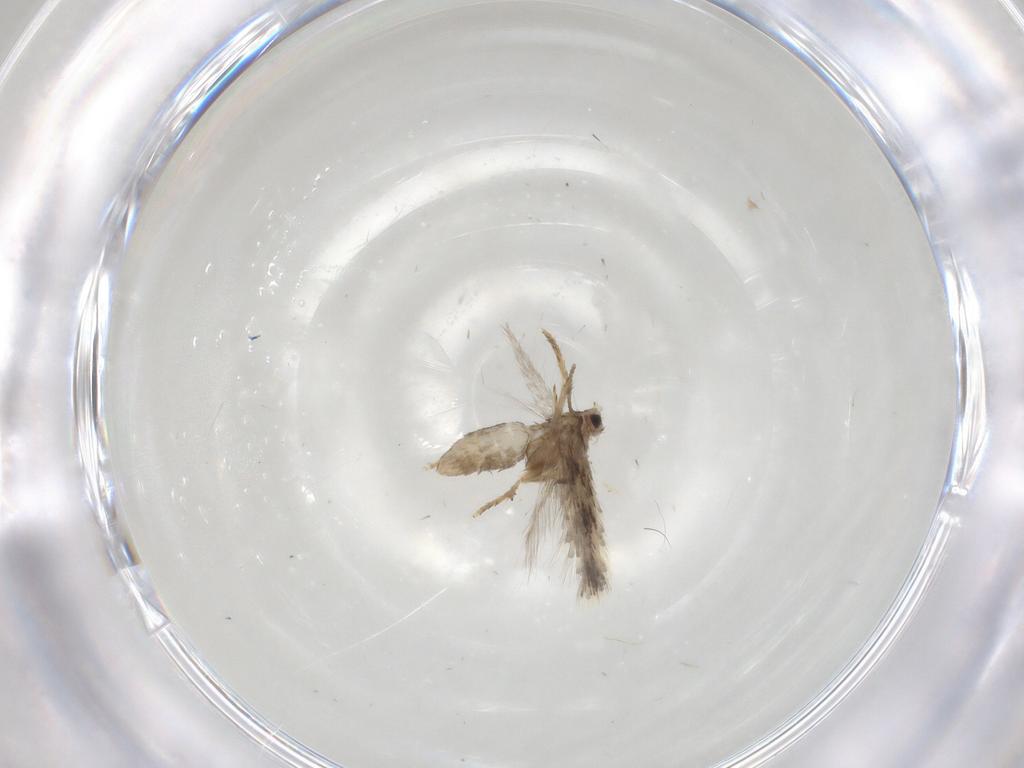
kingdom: Animalia
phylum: Arthropoda
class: Insecta
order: Lepidoptera
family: Nepticulidae
